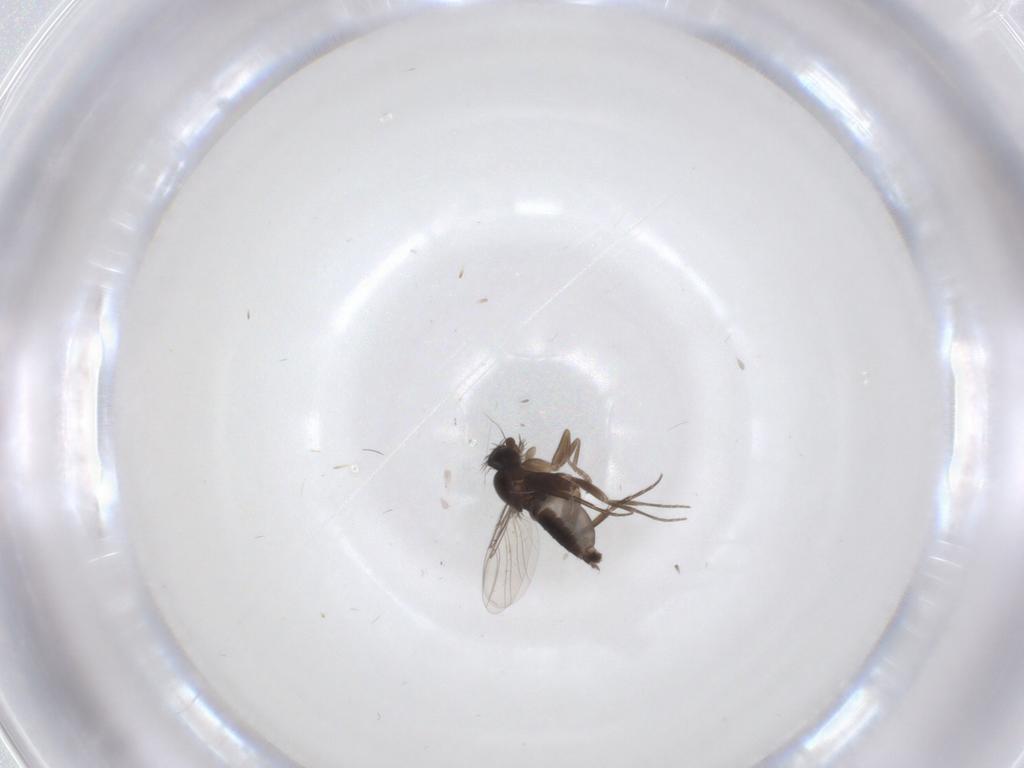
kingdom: Animalia
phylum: Arthropoda
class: Insecta
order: Diptera
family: Phoridae
